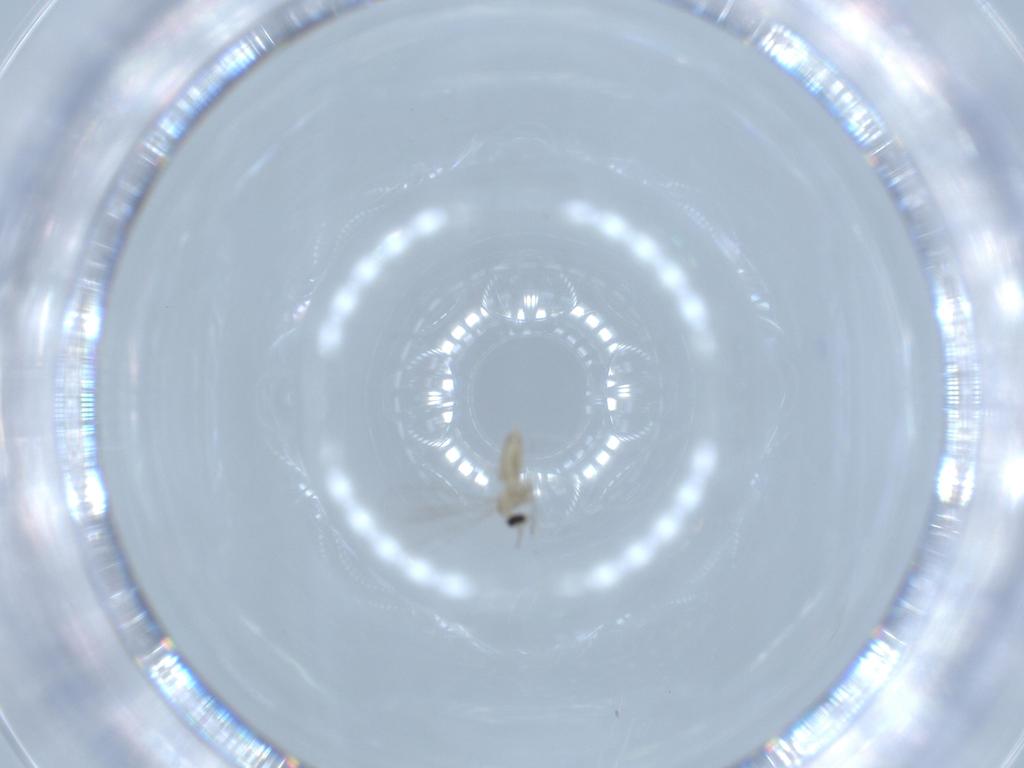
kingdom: Animalia
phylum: Arthropoda
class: Insecta
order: Diptera
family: Cecidomyiidae
